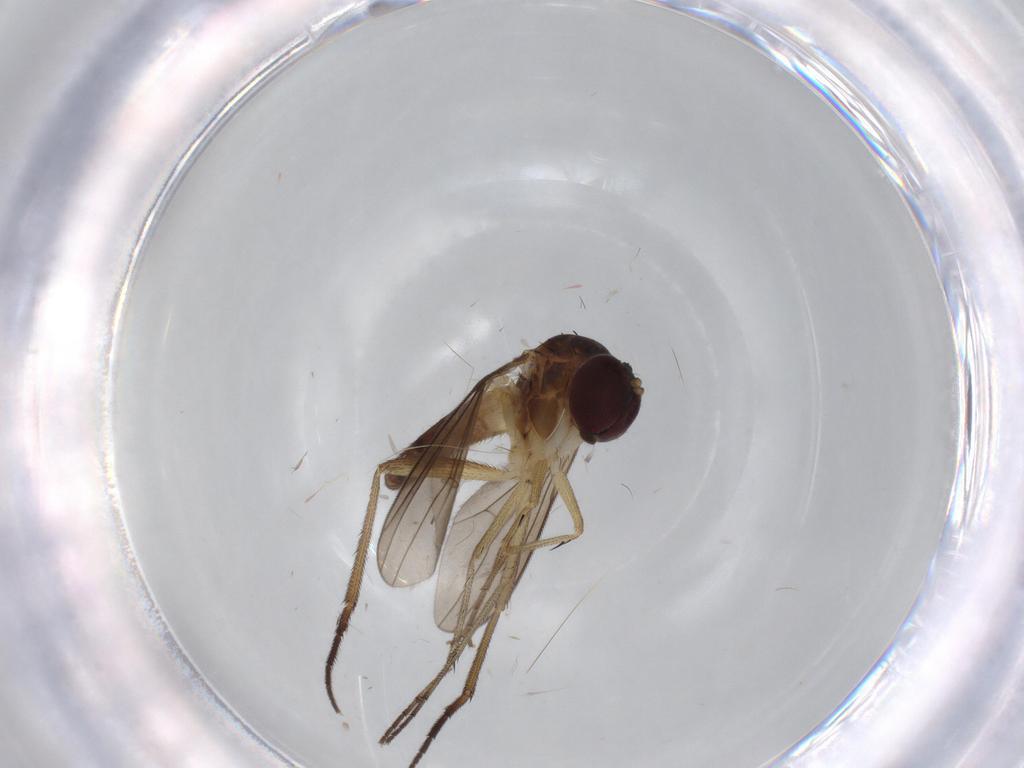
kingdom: Animalia
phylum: Arthropoda
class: Insecta
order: Diptera
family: Dolichopodidae
